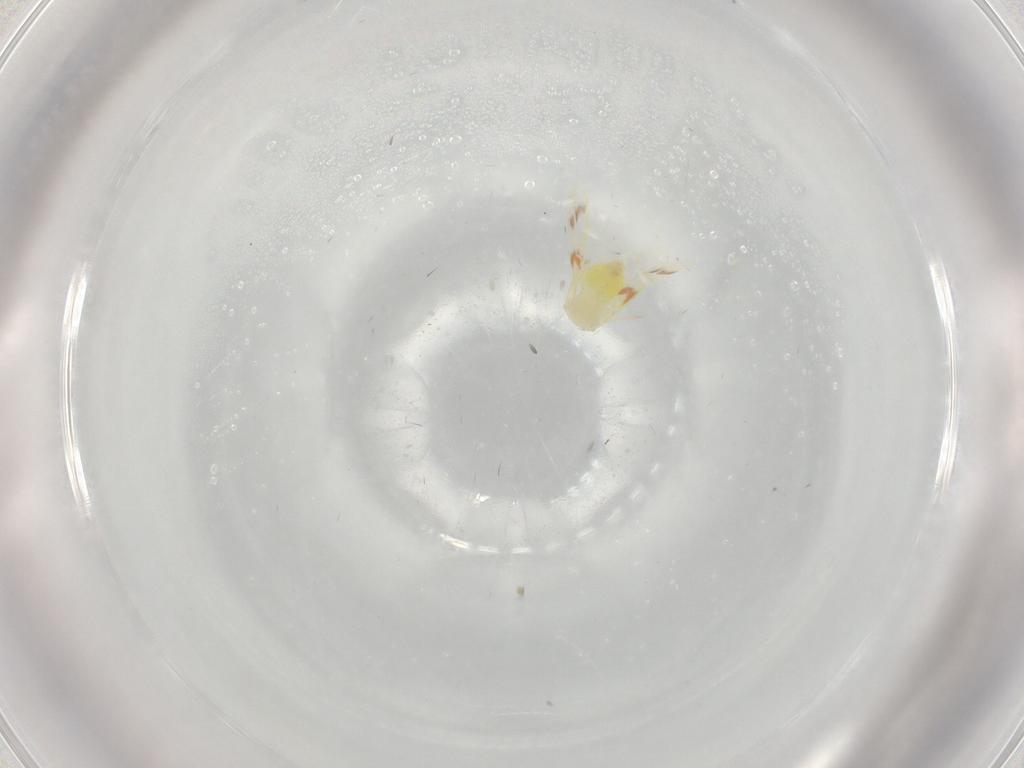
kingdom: Animalia
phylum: Arthropoda
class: Insecta
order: Hemiptera
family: Aleyrodidae
